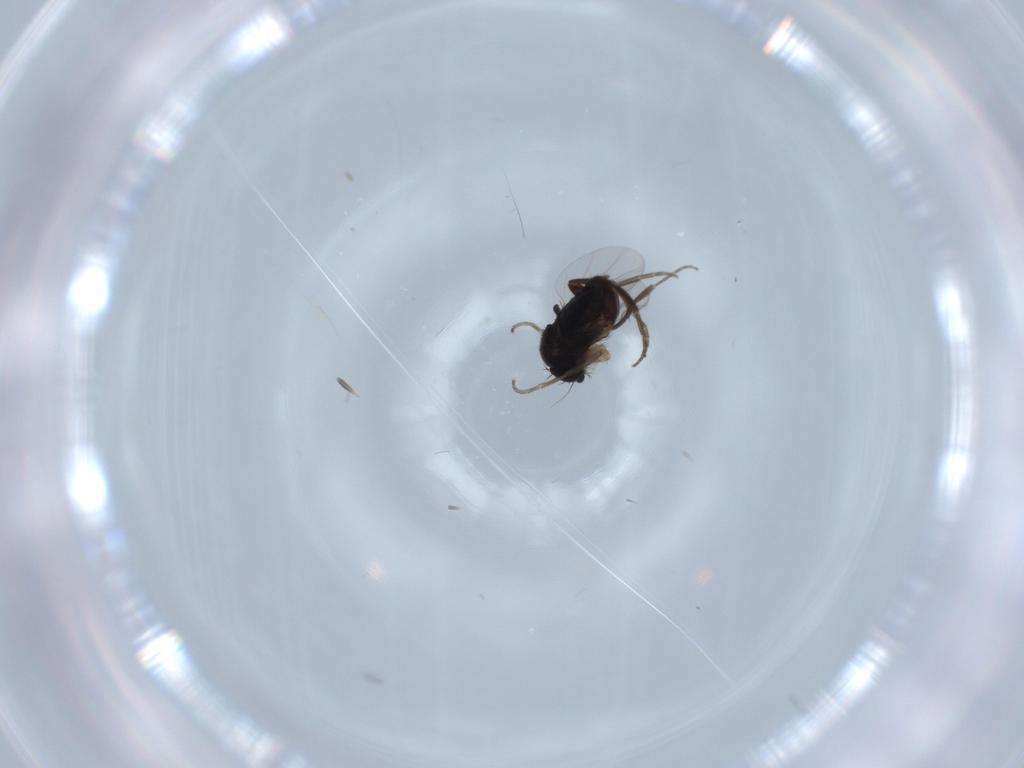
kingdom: Animalia
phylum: Arthropoda
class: Insecta
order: Diptera
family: Phoridae
